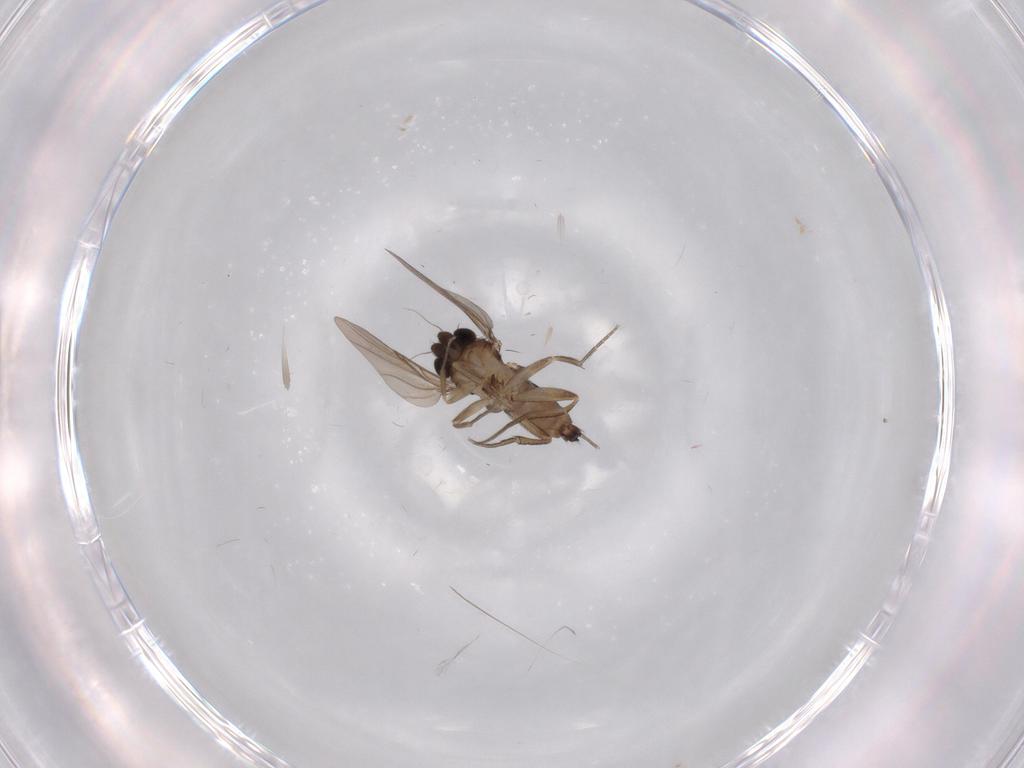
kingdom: Animalia
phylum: Arthropoda
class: Insecta
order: Diptera
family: Phoridae
